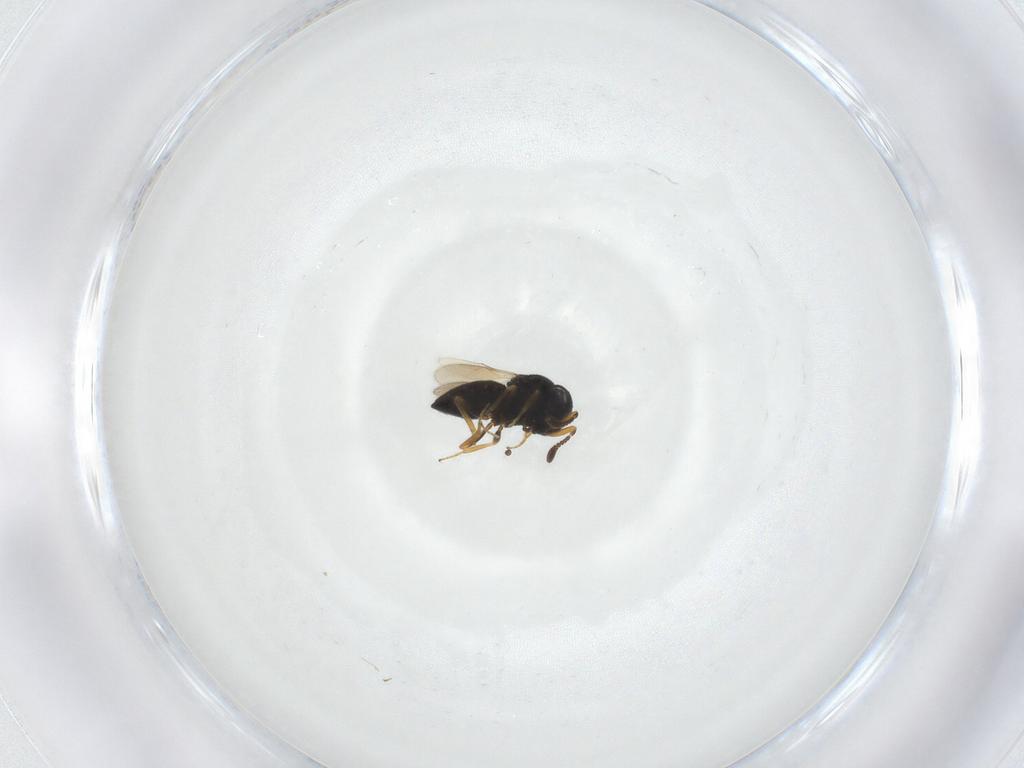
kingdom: Animalia
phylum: Arthropoda
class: Insecta
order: Hymenoptera
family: Scelionidae
